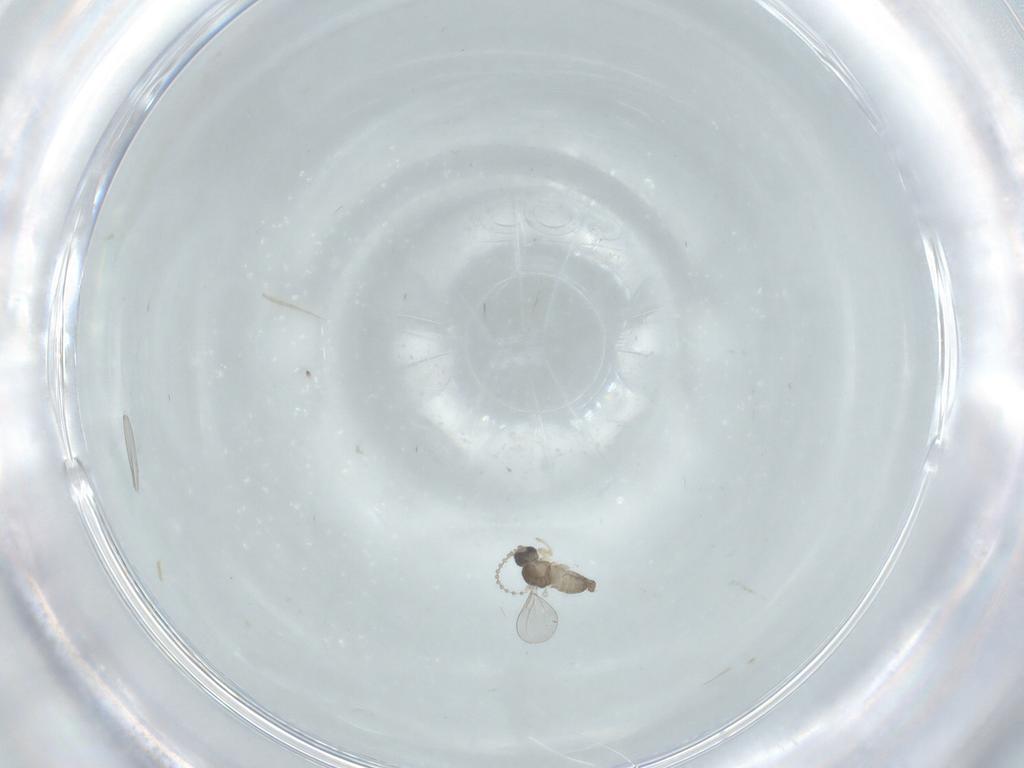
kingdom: Animalia
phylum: Arthropoda
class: Insecta
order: Diptera
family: Cecidomyiidae
